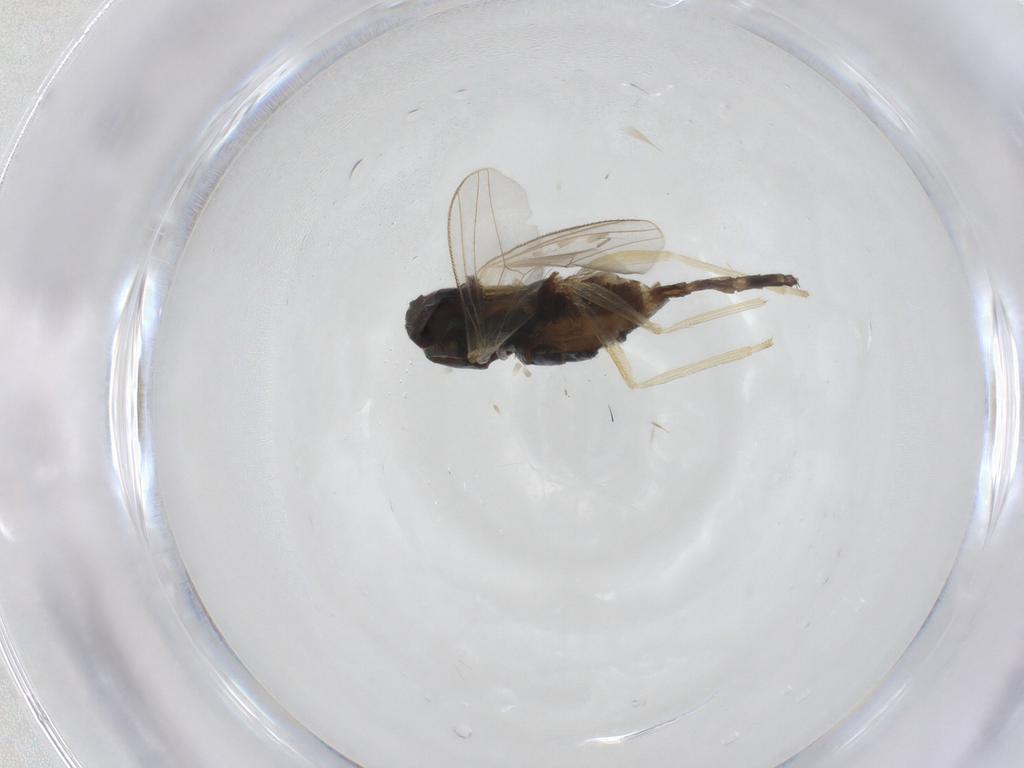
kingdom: Animalia
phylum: Arthropoda
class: Insecta
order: Diptera
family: Dolichopodidae
